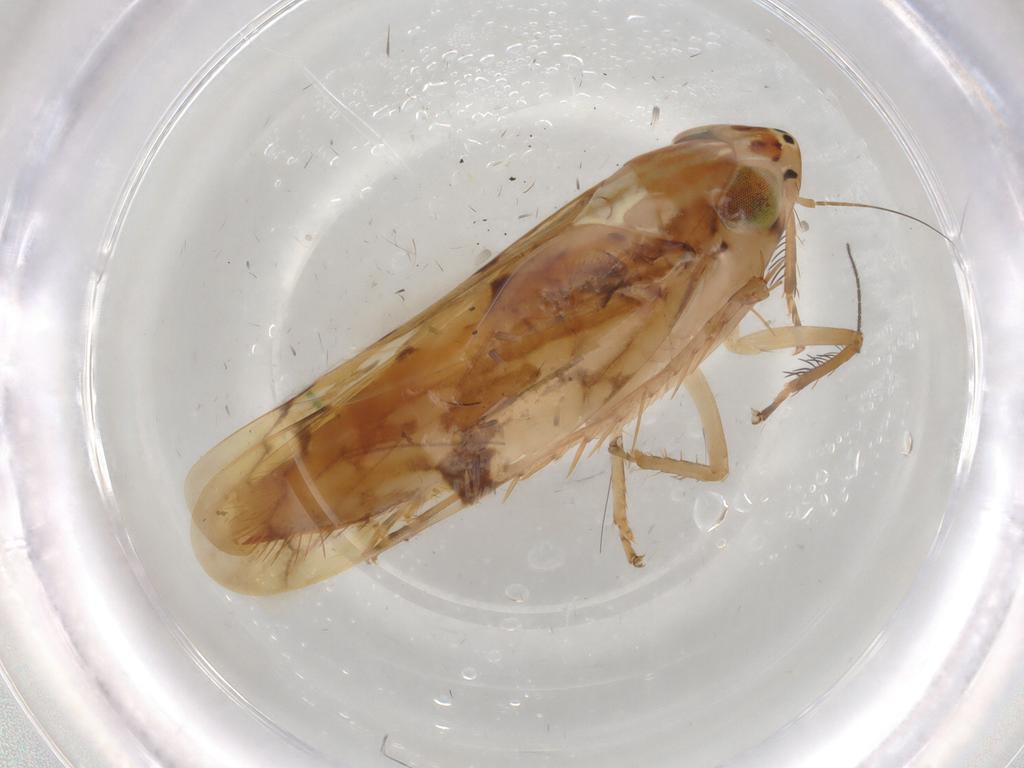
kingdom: Animalia
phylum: Arthropoda
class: Insecta
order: Hemiptera
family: Cicadellidae
